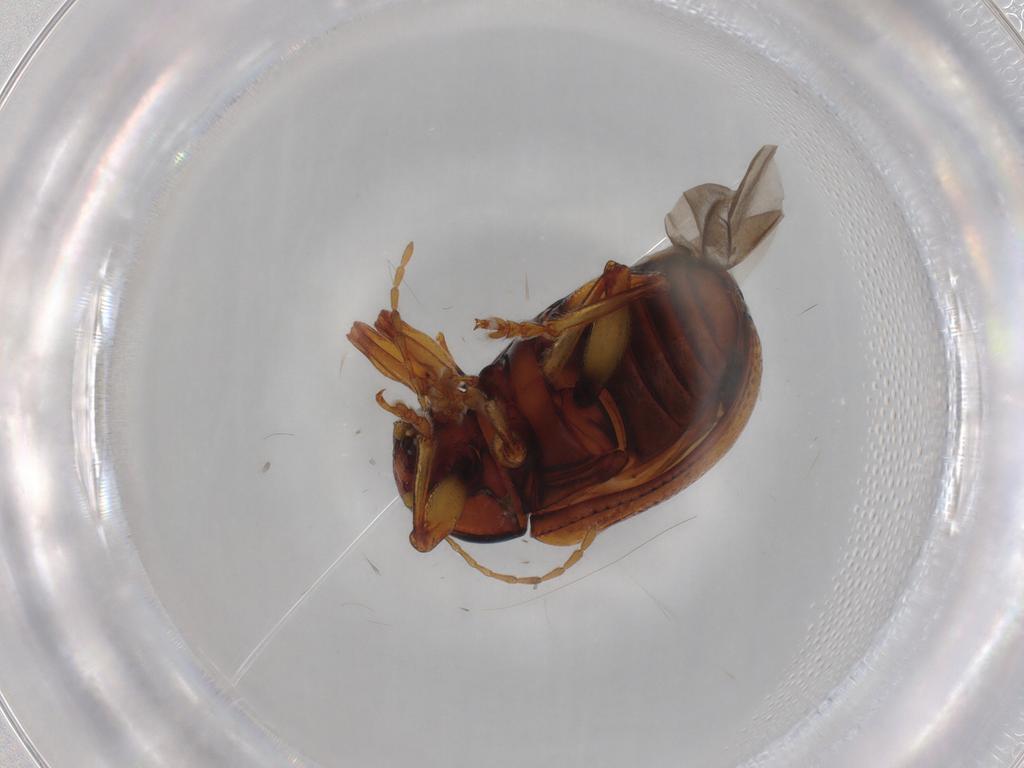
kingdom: Animalia
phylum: Arthropoda
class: Insecta
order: Coleoptera
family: Chrysomelidae
